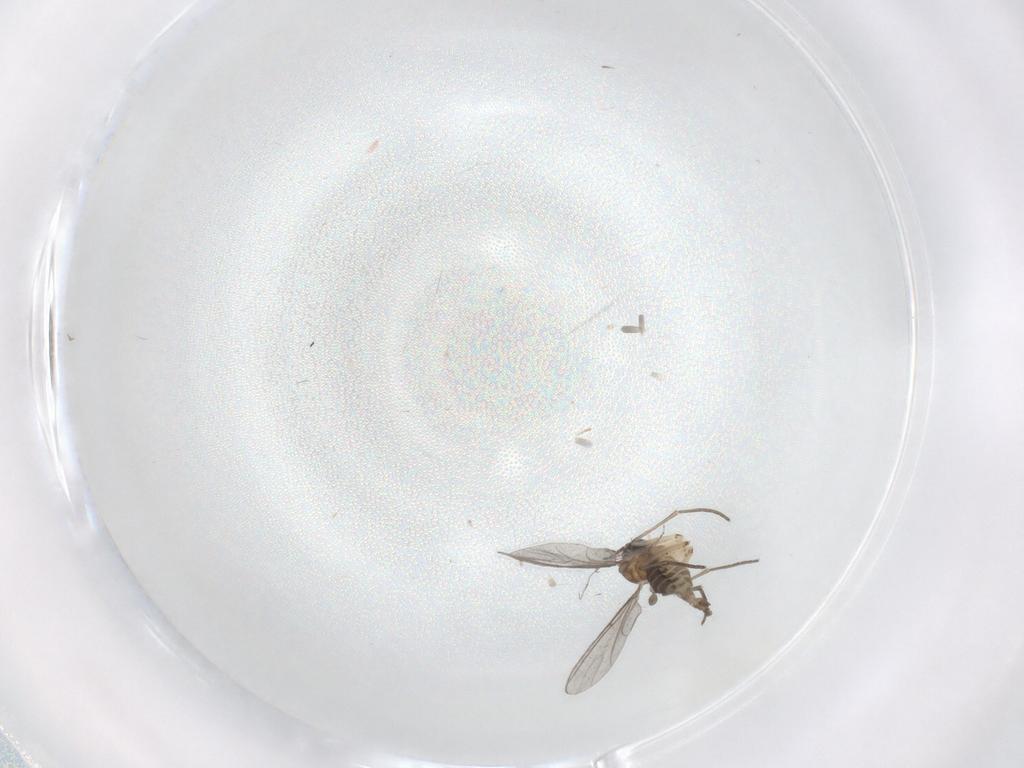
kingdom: Animalia
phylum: Arthropoda
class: Insecta
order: Diptera
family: Sciaridae
